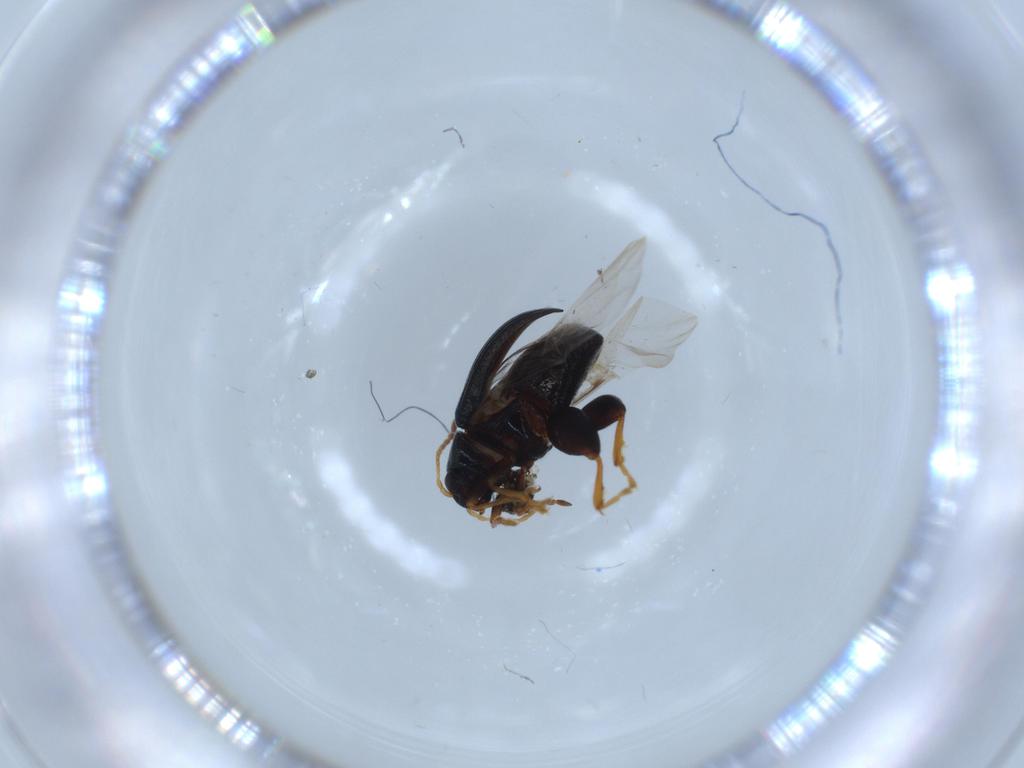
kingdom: Animalia
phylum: Arthropoda
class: Insecta
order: Coleoptera
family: Chrysomelidae
